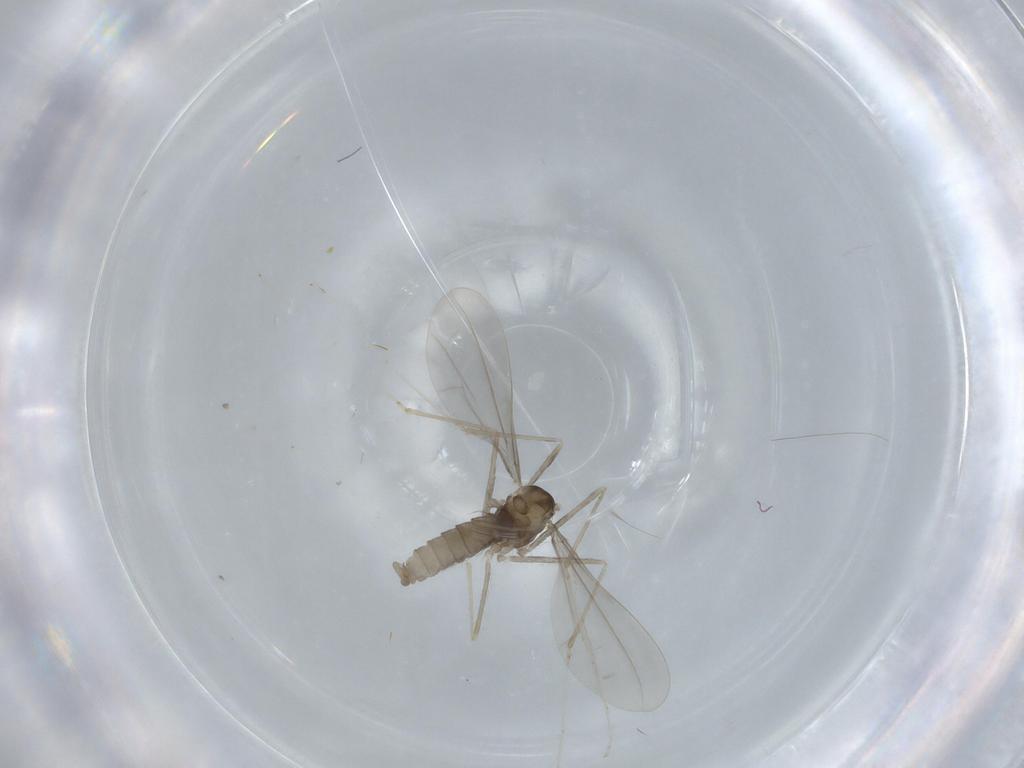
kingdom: Animalia
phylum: Arthropoda
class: Insecta
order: Diptera
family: Cecidomyiidae
